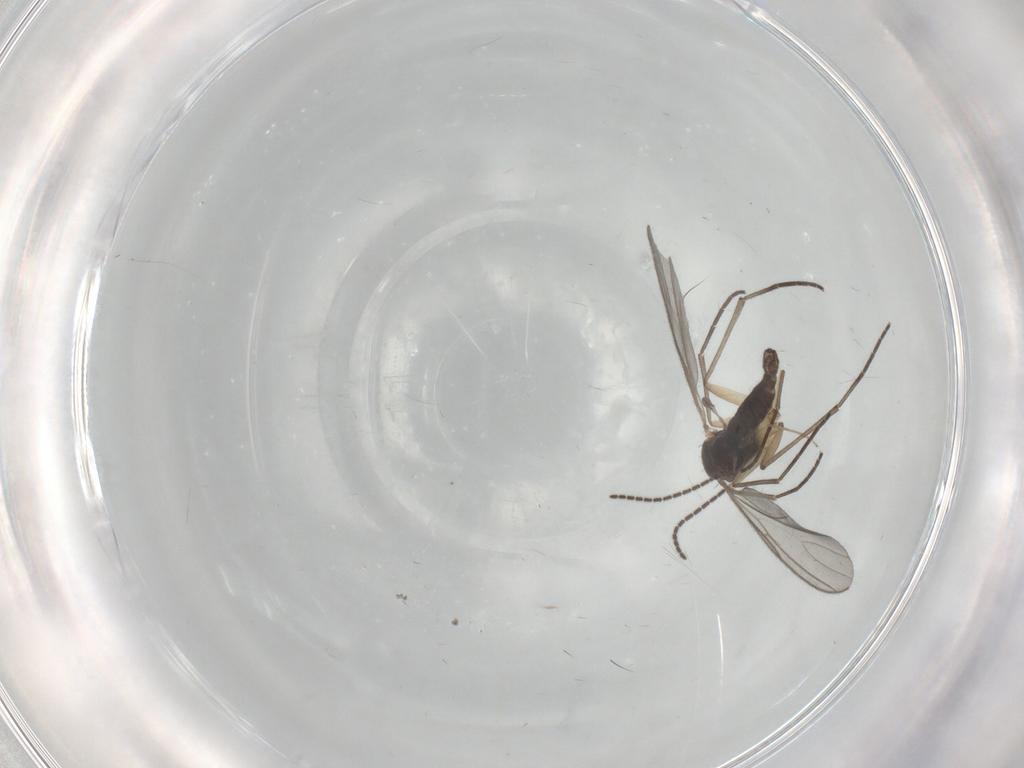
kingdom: Animalia
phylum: Arthropoda
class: Insecta
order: Diptera
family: Sciaridae
